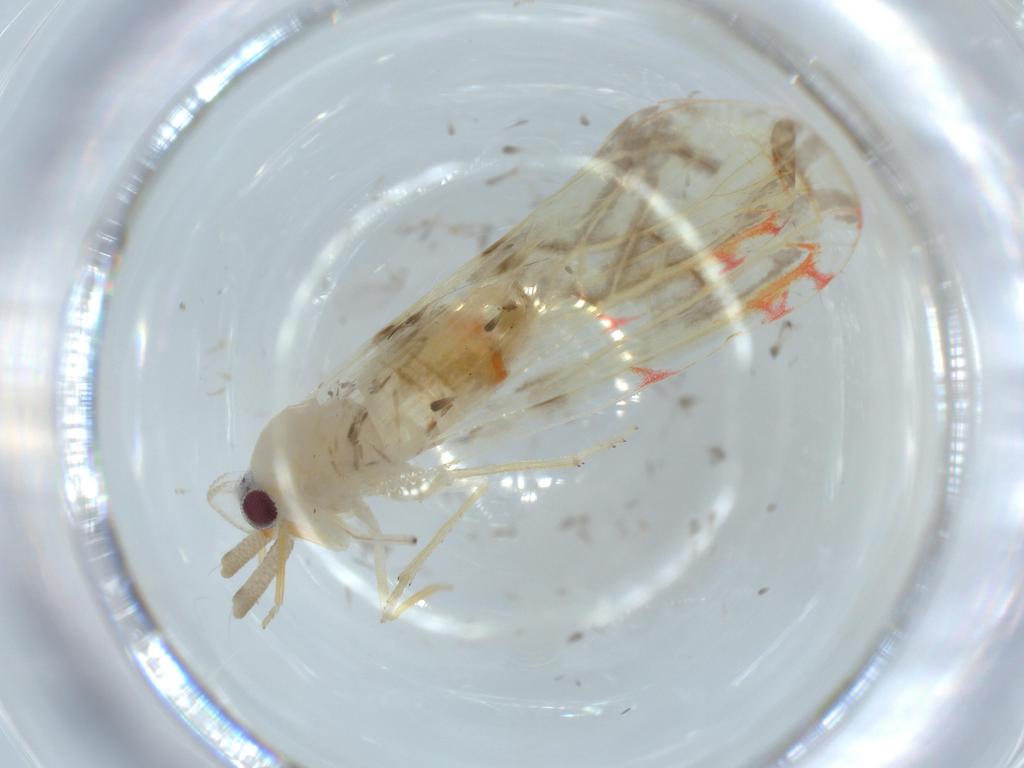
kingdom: Animalia
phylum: Arthropoda
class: Insecta
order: Hemiptera
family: Derbidae
